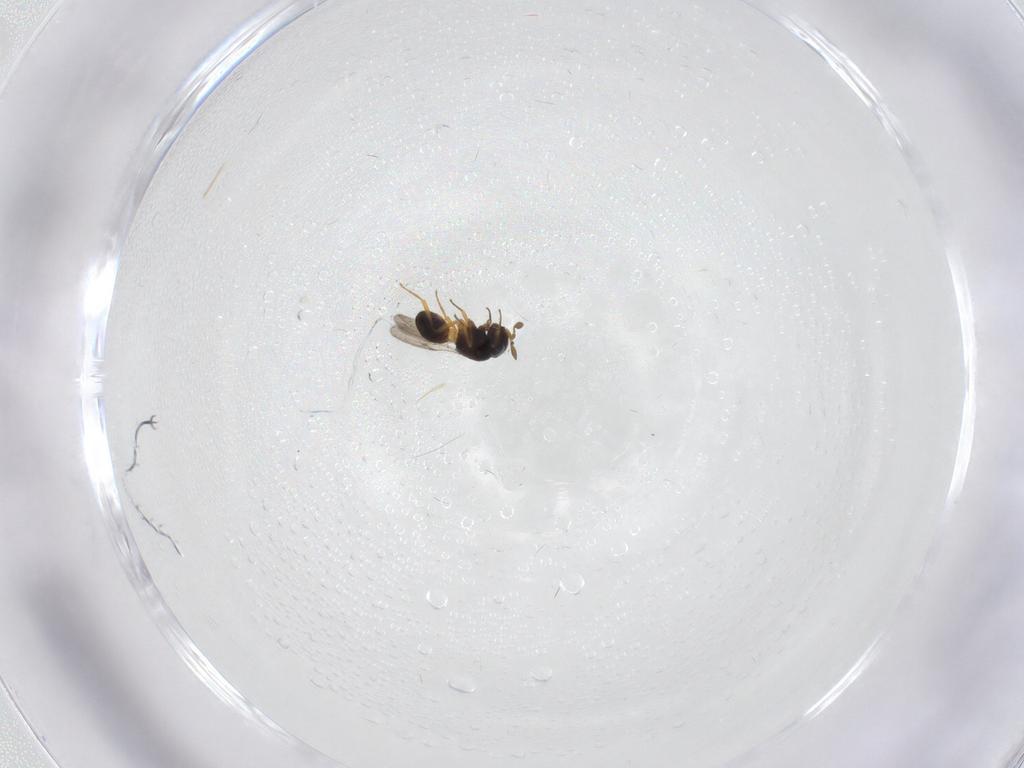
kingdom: Animalia
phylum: Arthropoda
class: Insecta
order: Hymenoptera
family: Scelionidae
